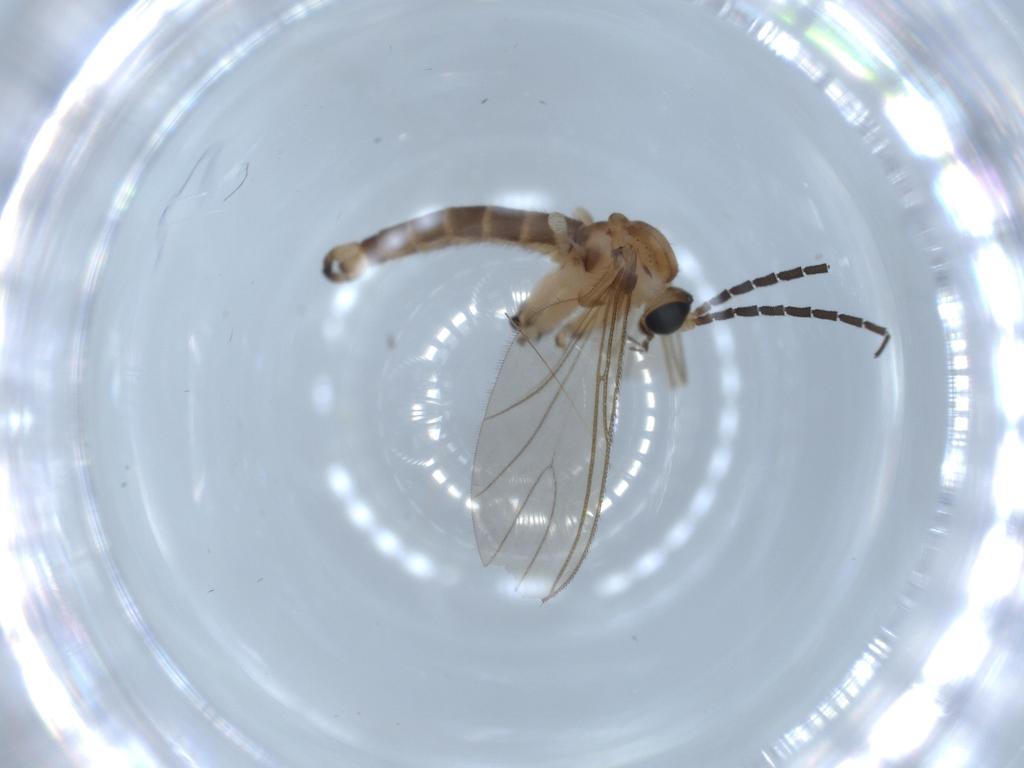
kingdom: Animalia
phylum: Arthropoda
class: Insecta
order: Diptera
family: Sciaridae
